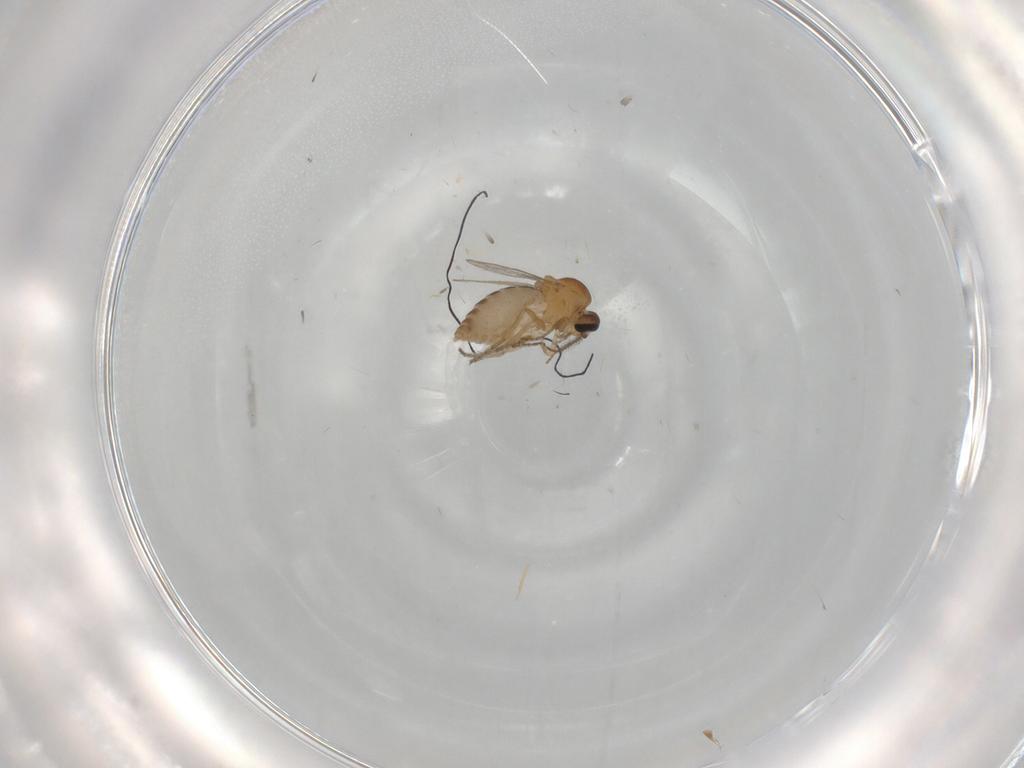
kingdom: Animalia
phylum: Arthropoda
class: Insecta
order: Diptera
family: Ceratopogonidae
